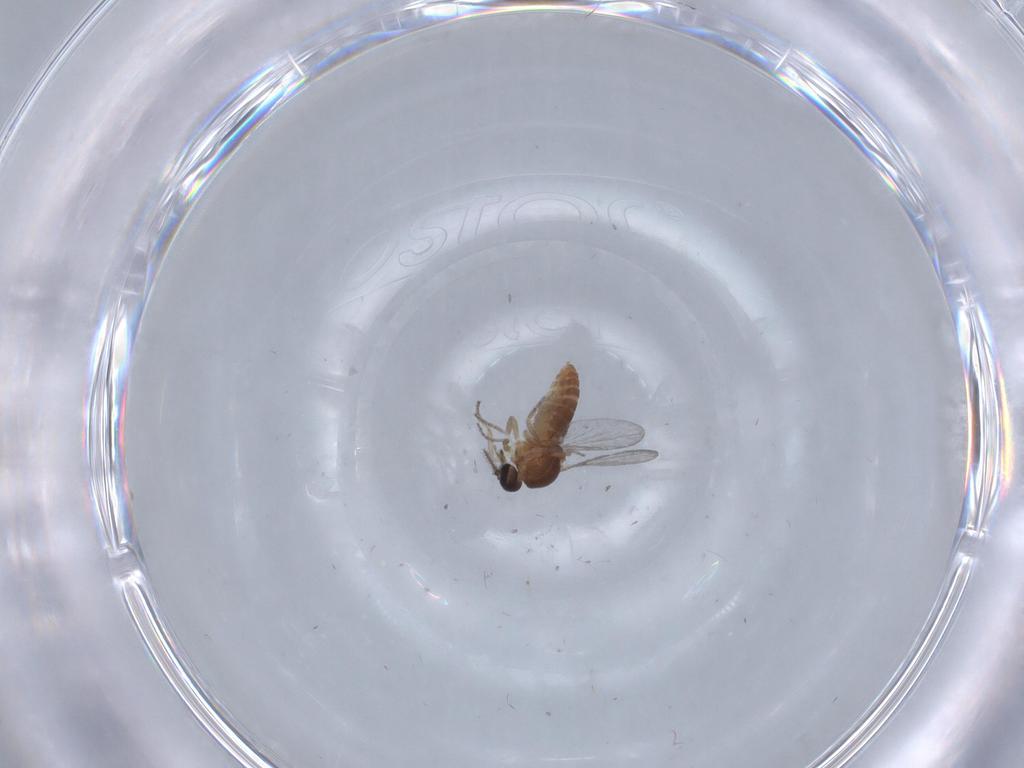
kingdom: Animalia
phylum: Arthropoda
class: Insecta
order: Diptera
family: Ceratopogonidae
